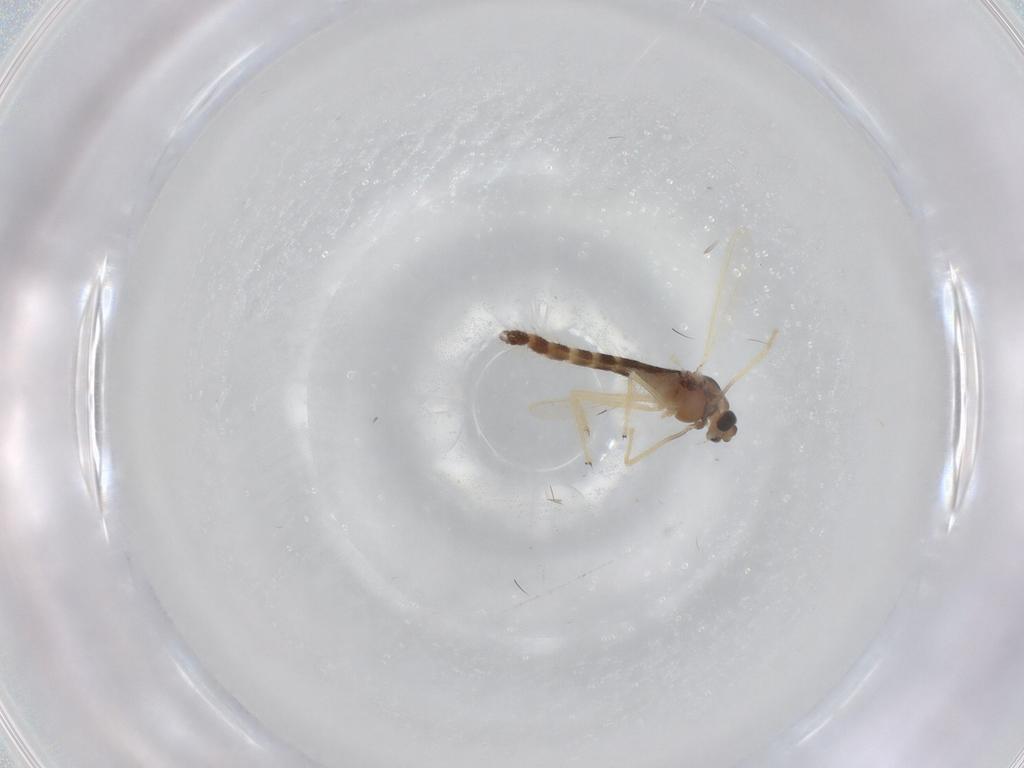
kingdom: Animalia
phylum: Arthropoda
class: Insecta
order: Diptera
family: Chironomidae
